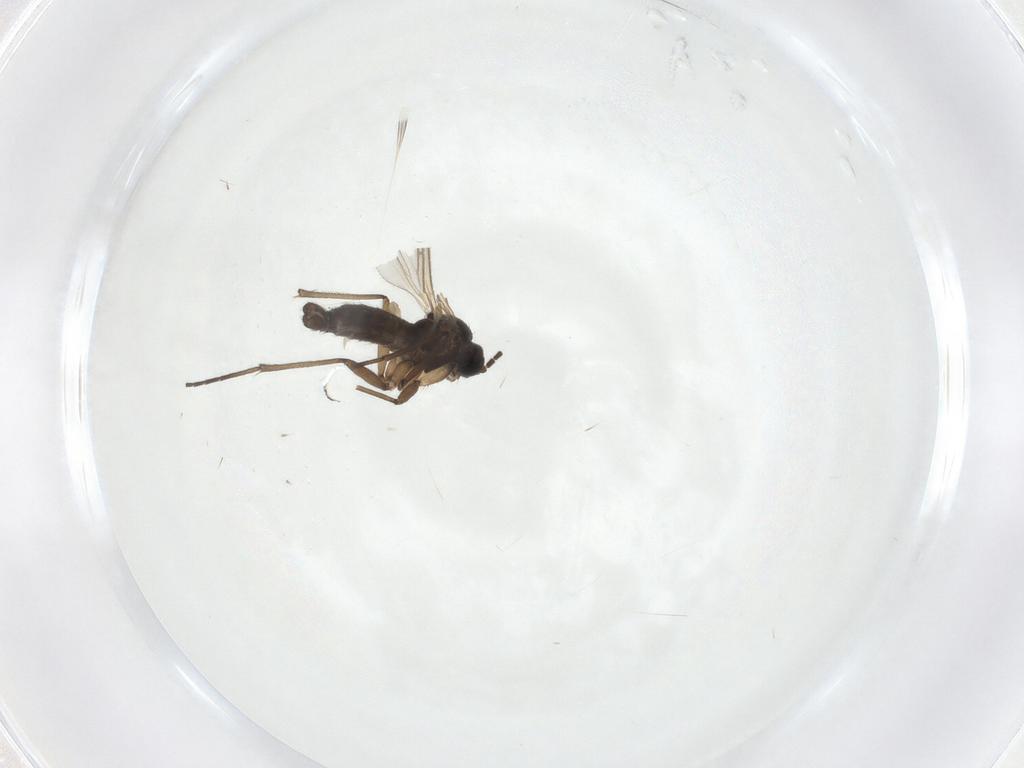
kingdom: Animalia
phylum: Arthropoda
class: Insecta
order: Diptera
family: Sciaridae
